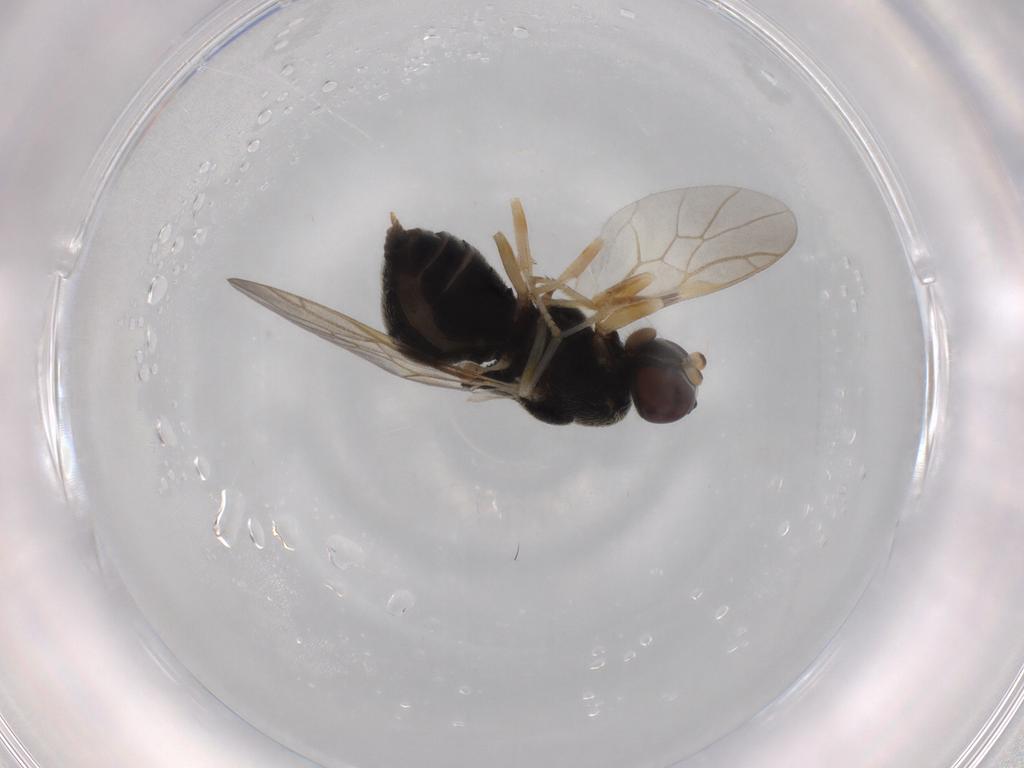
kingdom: Animalia
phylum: Arthropoda
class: Insecta
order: Diptera
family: Stratiomyidae
